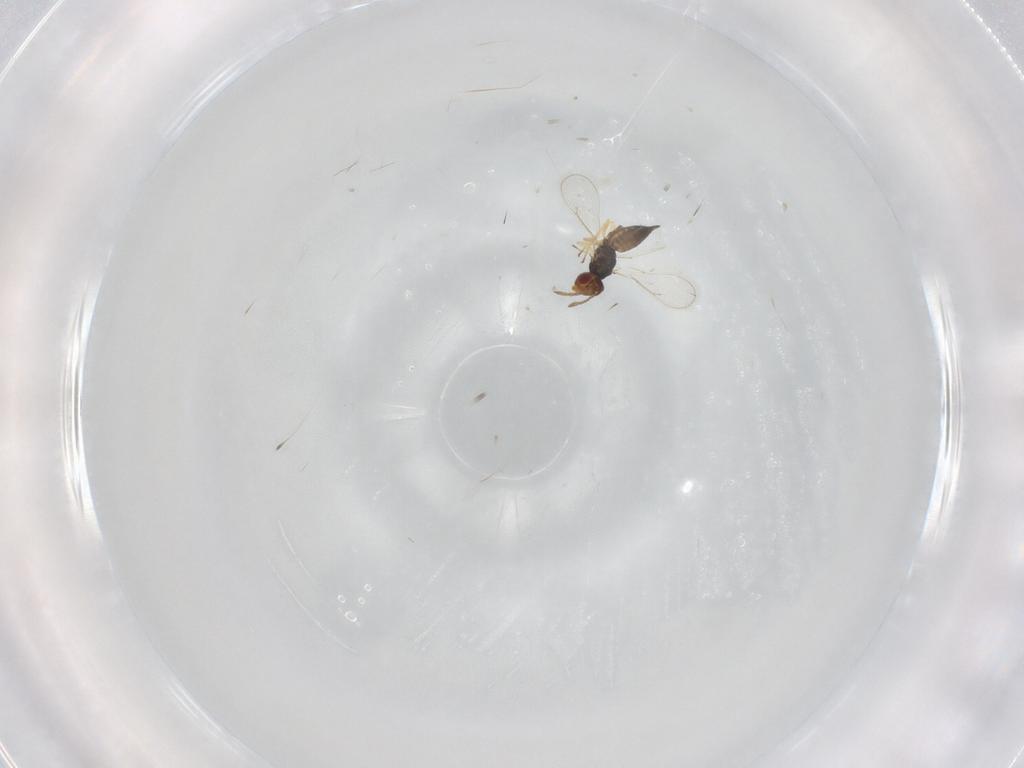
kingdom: Animalia
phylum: Arthropoda
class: Insecta
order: Hymenoptera
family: Eulophidae
